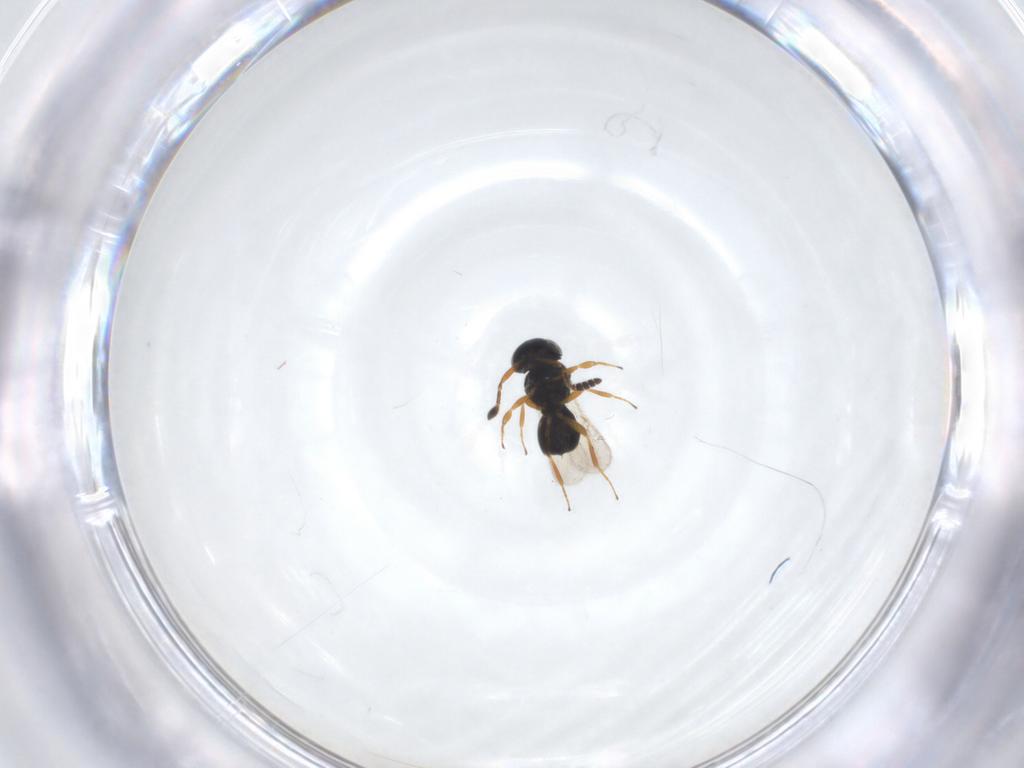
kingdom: Animalia
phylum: Arthropoda
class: Insecta
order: Hymenoptera
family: Scelionidae
